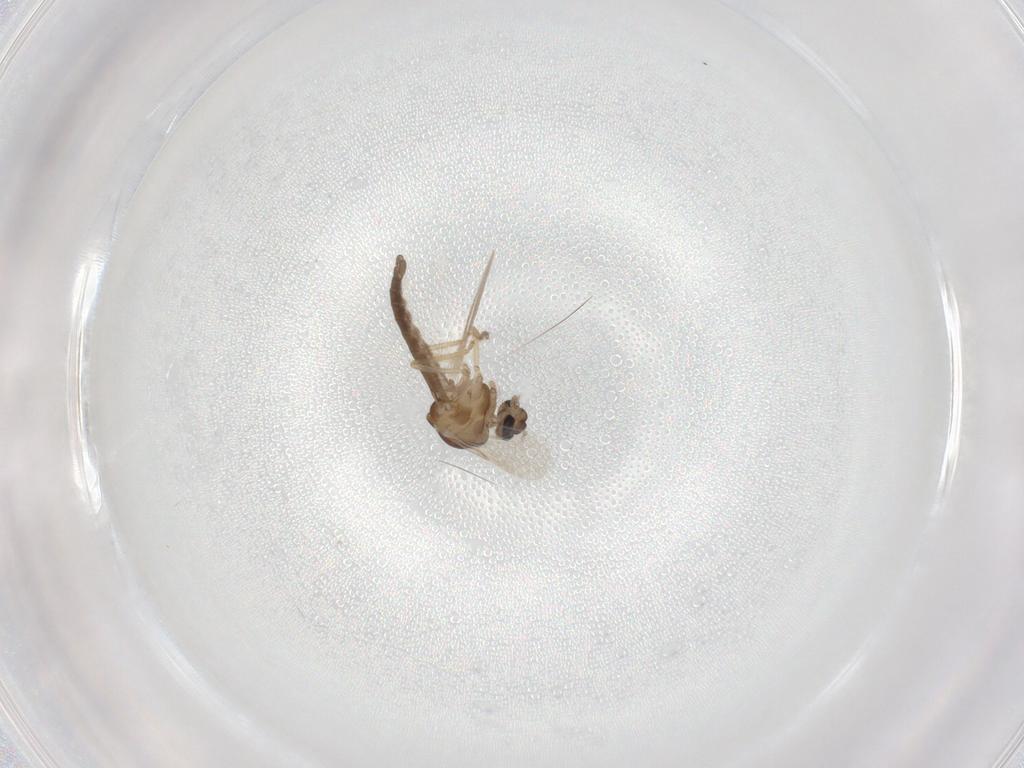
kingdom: Animalia
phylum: Arthropoda
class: Insecta
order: Diptera
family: Ceratopogonidae
